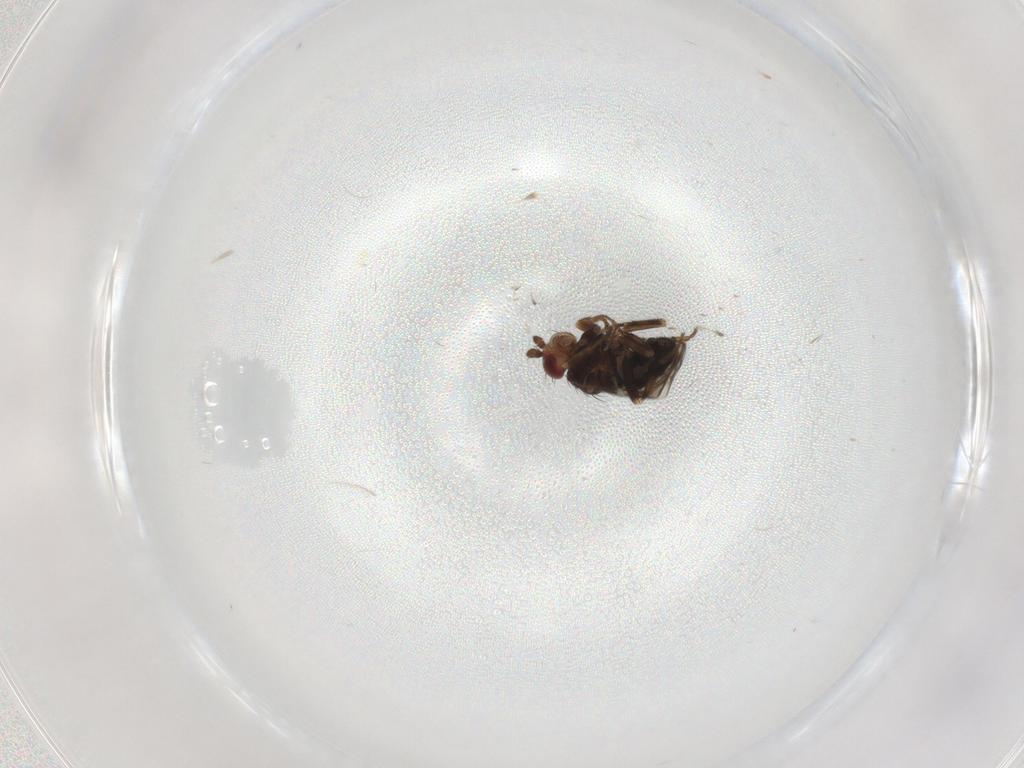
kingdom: Animalia
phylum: Arthropoda
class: Insecta
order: Diptera
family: Sphaeroceridae
